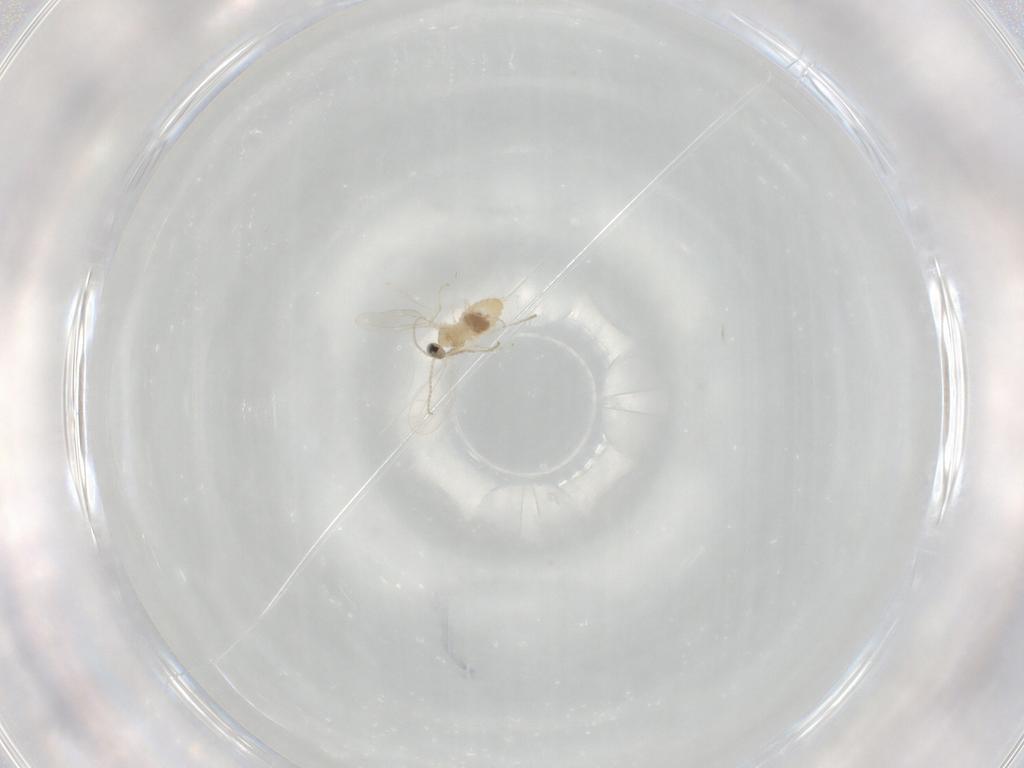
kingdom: Animalia
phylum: Arthropoda
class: Insecta
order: Diptera
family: Cecidomyiidae
